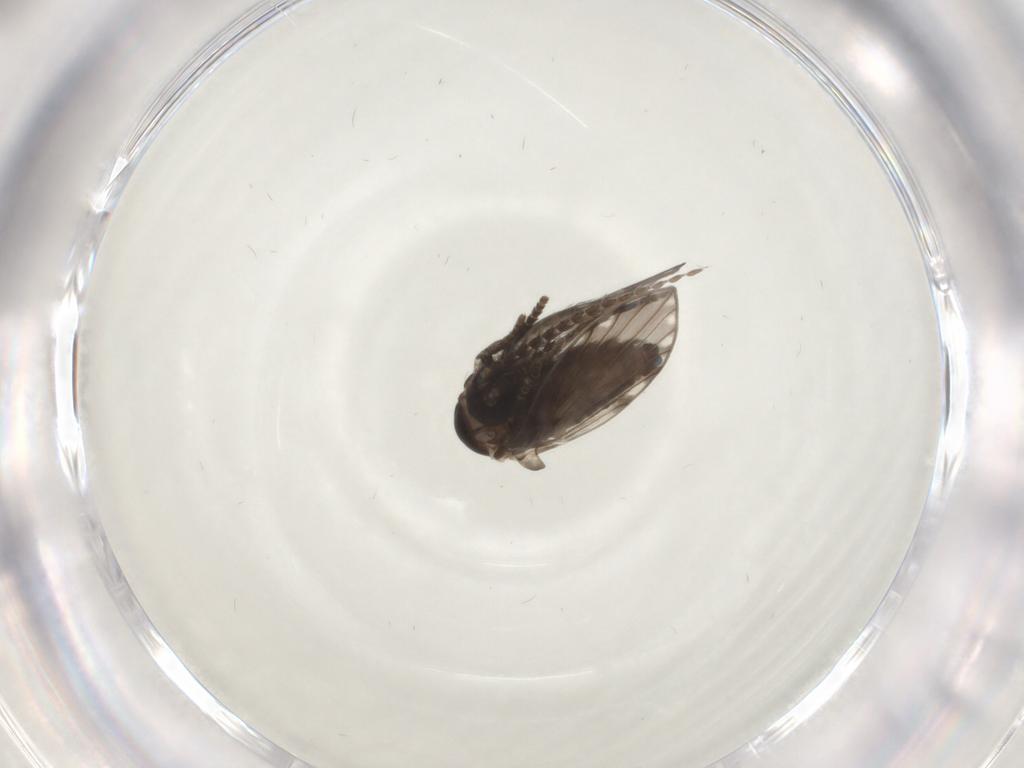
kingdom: Animalia
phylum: Arthropoda
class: Insecta
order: Diptera
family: Psychodidae
